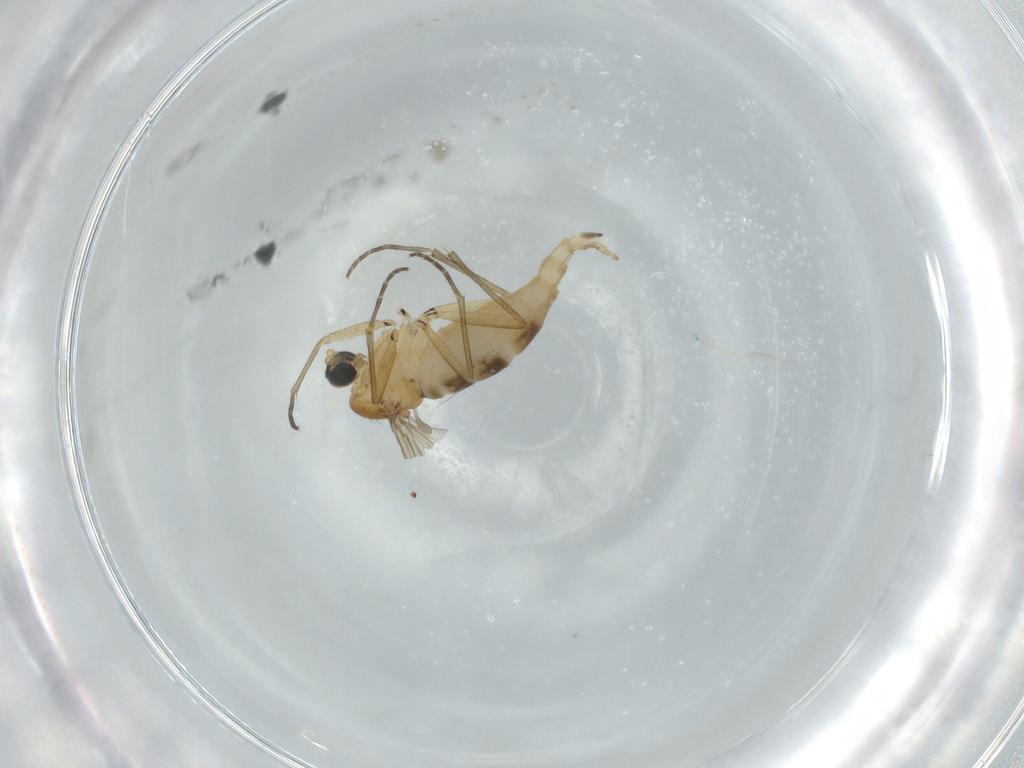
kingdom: Animalia
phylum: Arthropoda
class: Insecta
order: Diptera
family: Sciaridae
